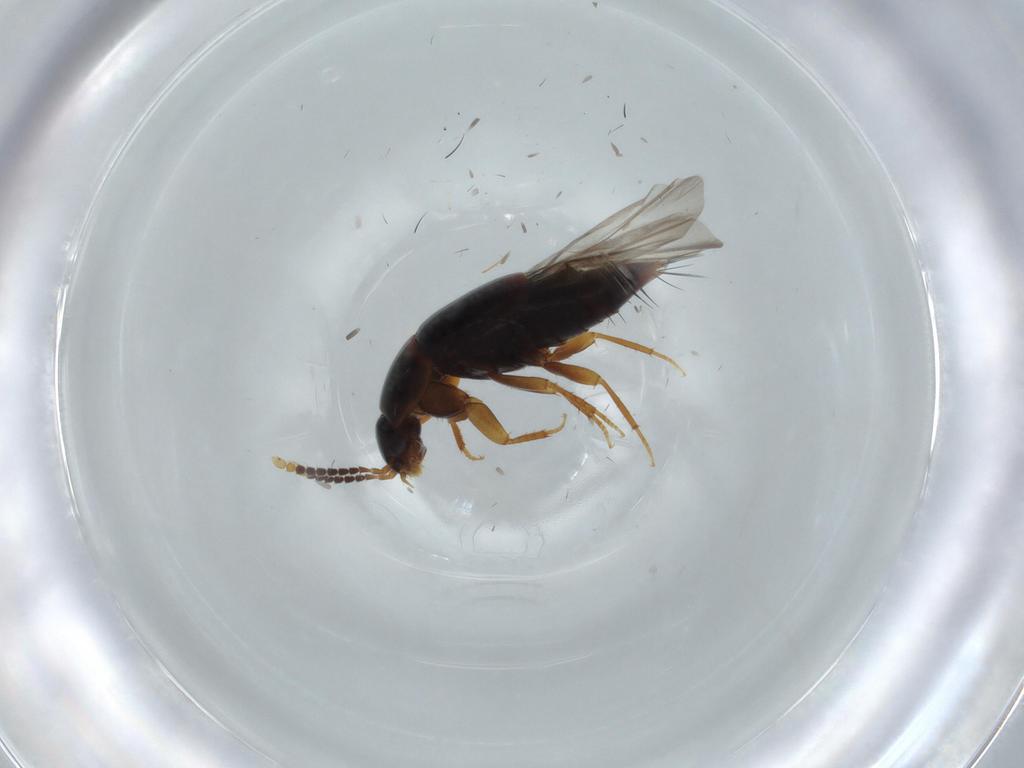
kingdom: Animalia
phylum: Arthropoda
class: Insecta
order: Coleoptera
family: Staphylinidae
